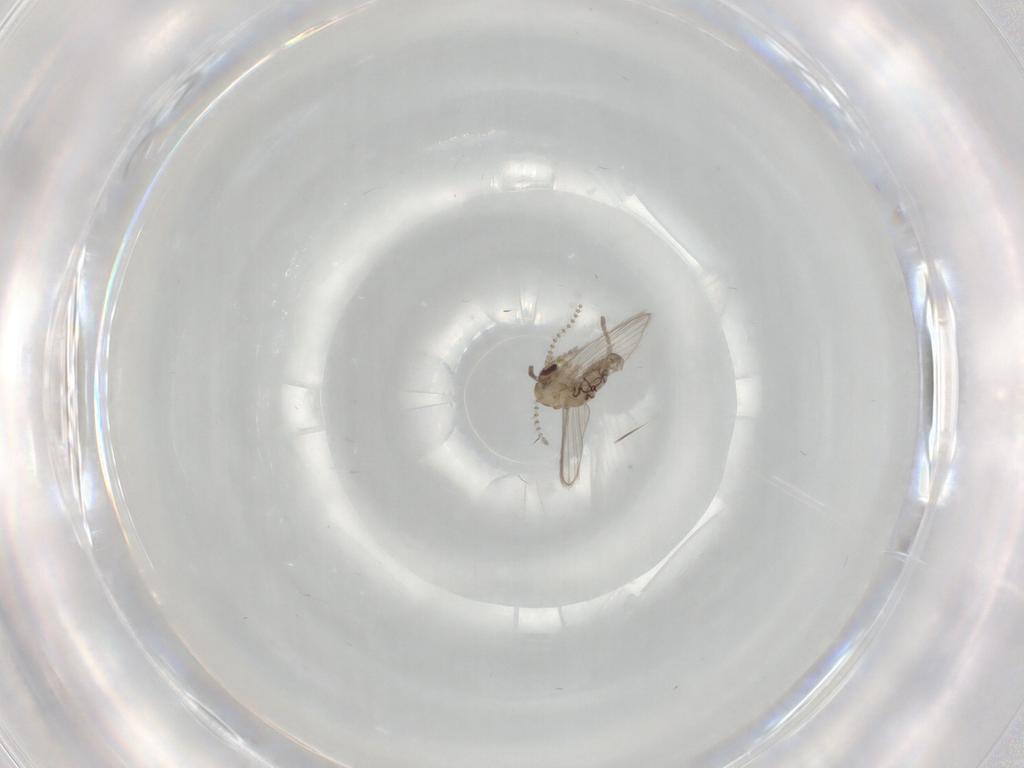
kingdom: Animalia
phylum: Arthropoda
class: Insecta
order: Diptera
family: Psychodidae
